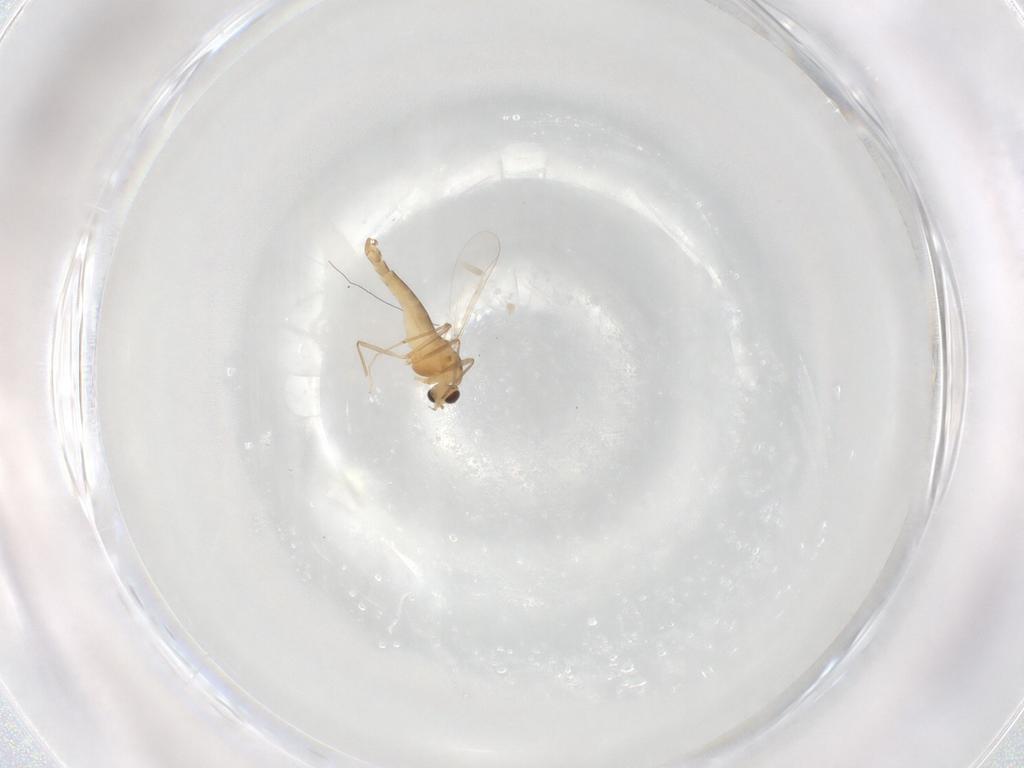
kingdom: Animalia
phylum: Arthropoda
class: Insecta
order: Diptera
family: Chironomidae
